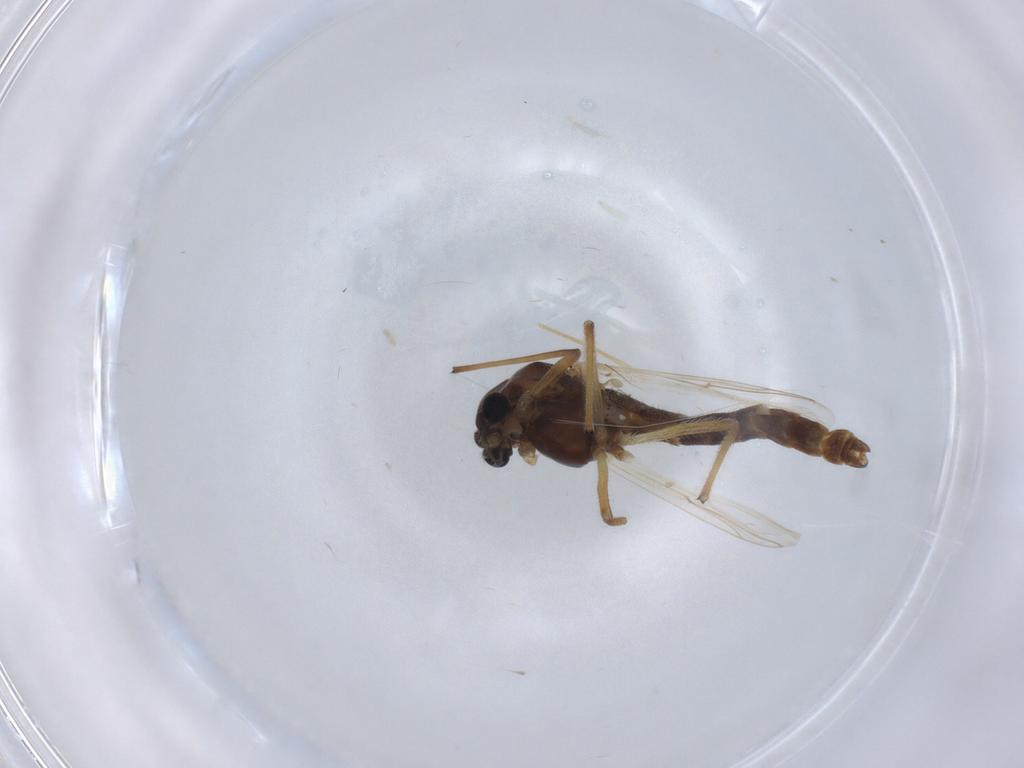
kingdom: Animalia
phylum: Arthropoda
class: Insecta
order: Diptera
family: Chironomidae
